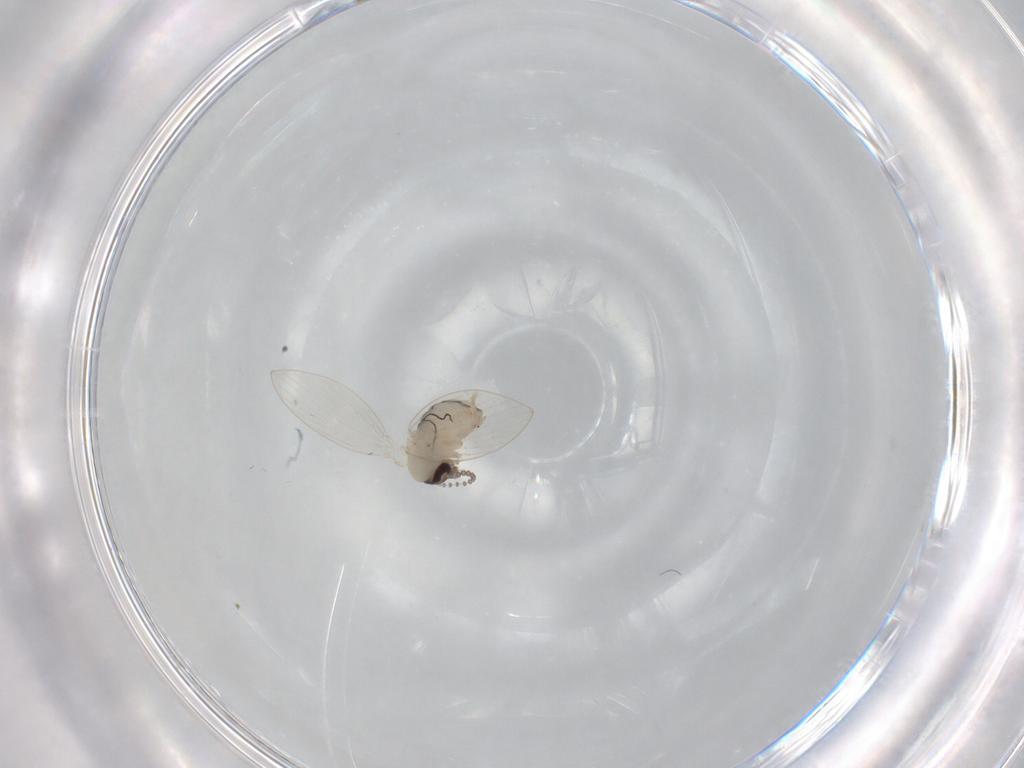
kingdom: Animalia
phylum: Arthropoda
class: Insecta
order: Diptera
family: Psychodidae
